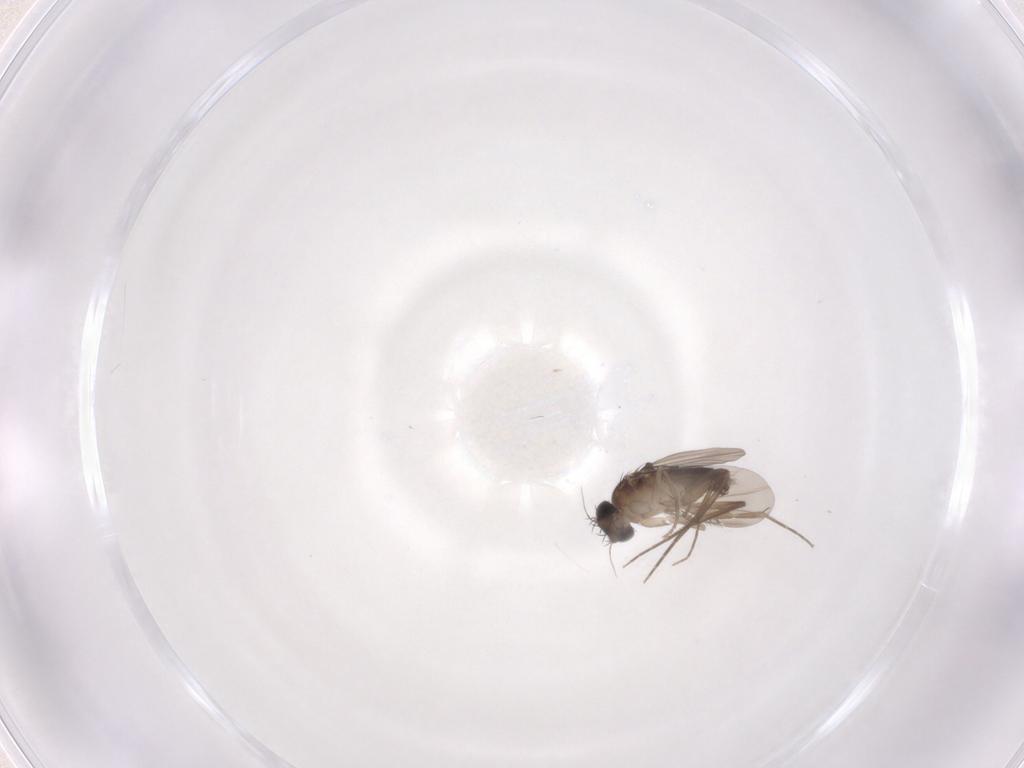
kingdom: Animalia
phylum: Arthropoda
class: Insecta
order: Diptera
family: Phoridae
